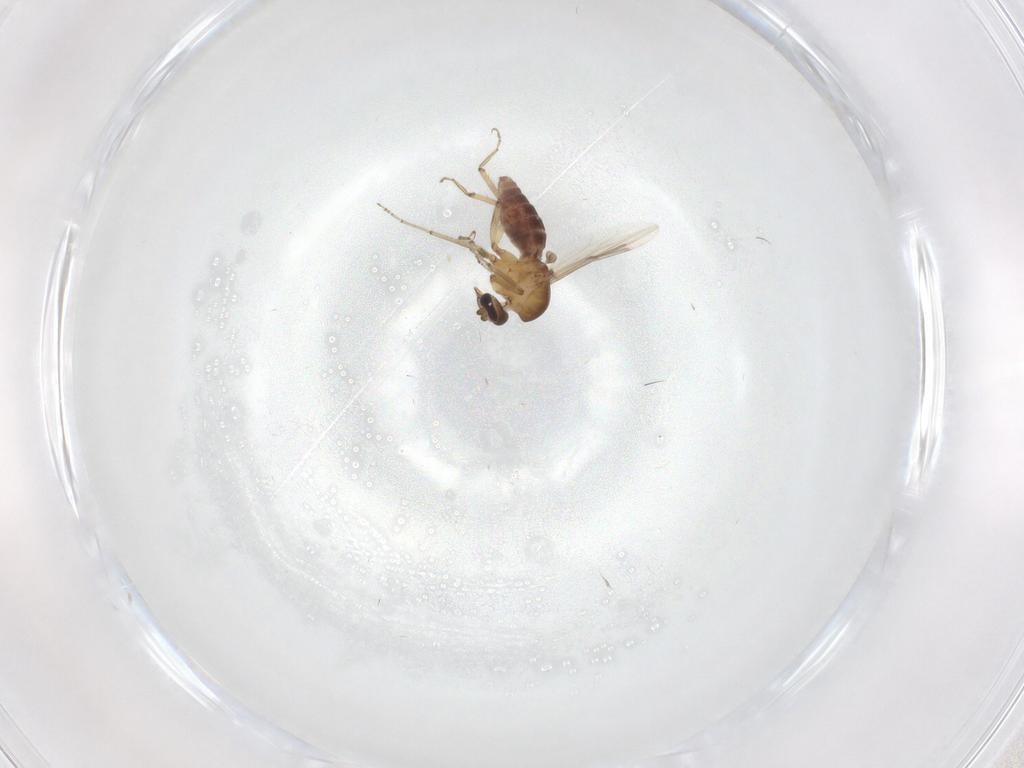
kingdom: Animalia
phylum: Arthropoda
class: Insecta
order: Diptera
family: Ceratopogonidae
